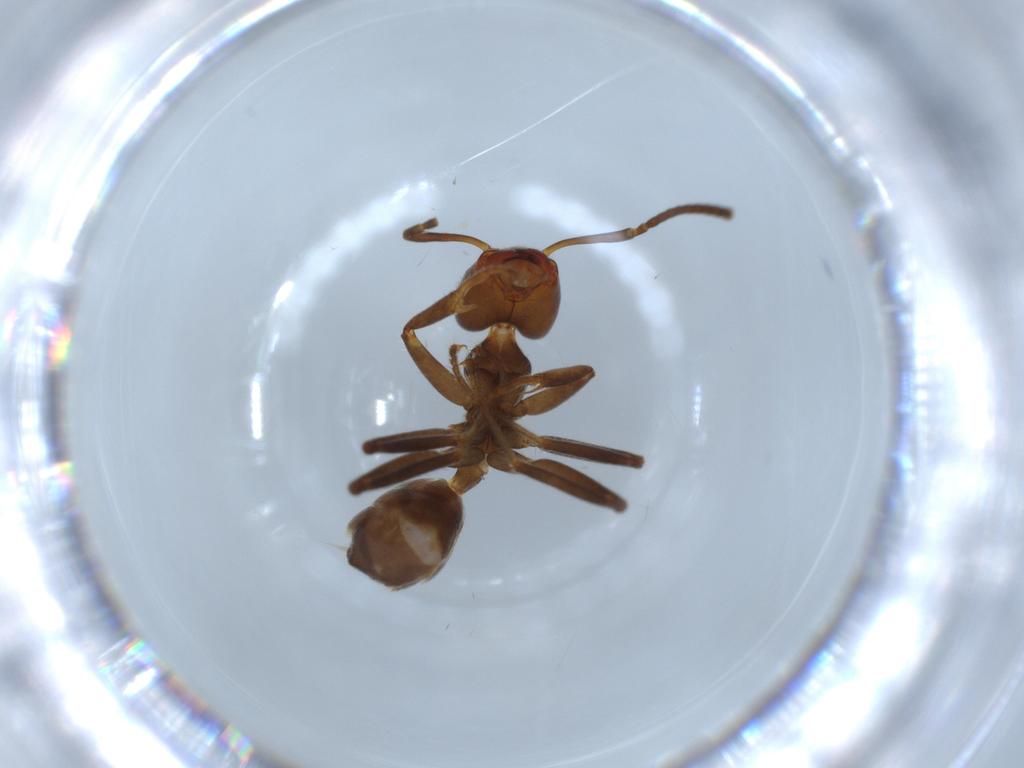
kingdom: Animalia
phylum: Arthropoda
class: Insecta
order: Hymenoptera
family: Formicidae
